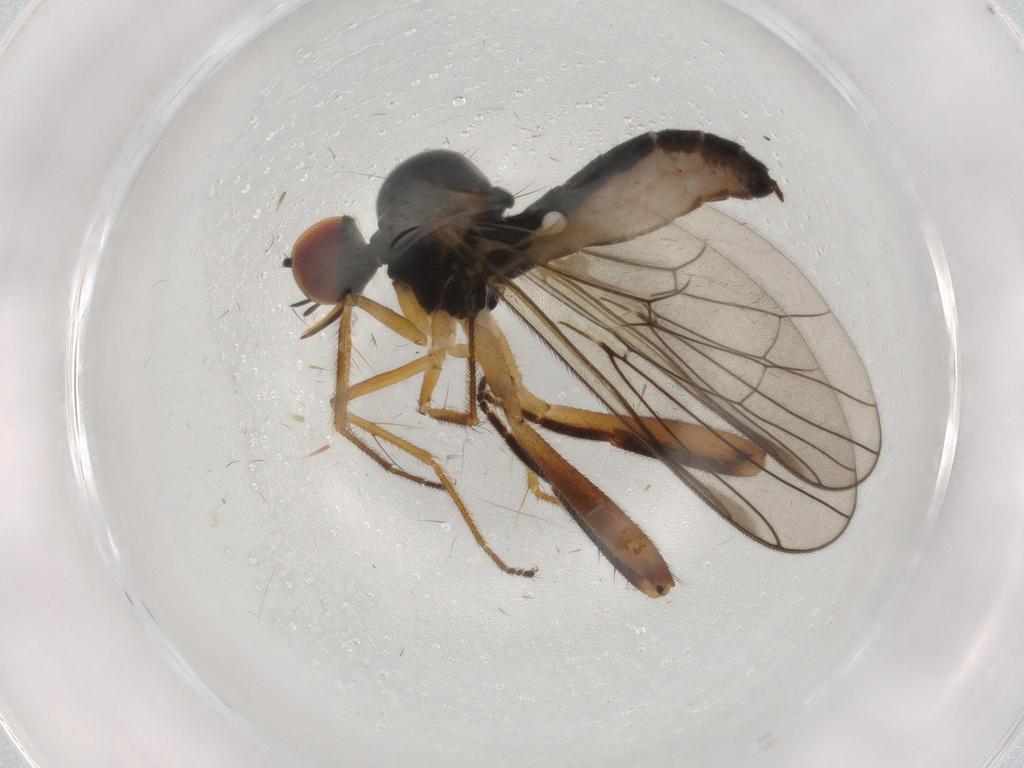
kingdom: Animalia
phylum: Arthropoda
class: Insecta
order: Diptera
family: Hybotidae
